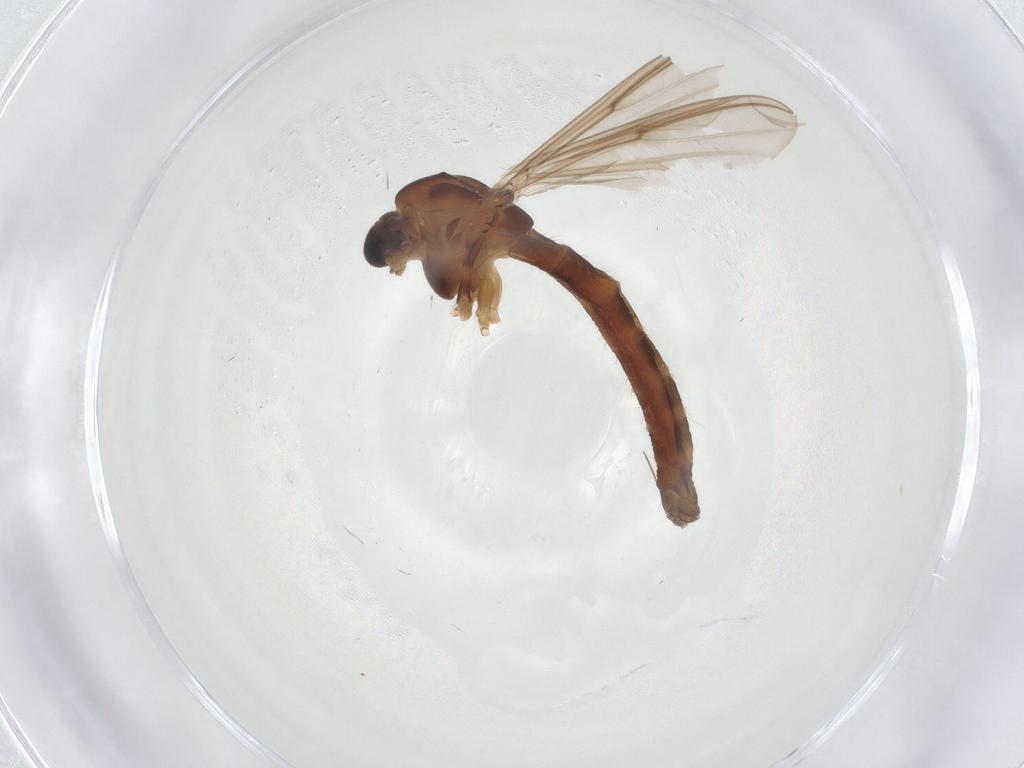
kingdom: Animalia
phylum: Arthropoda
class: Insecta
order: Diptera
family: Chironomidae
